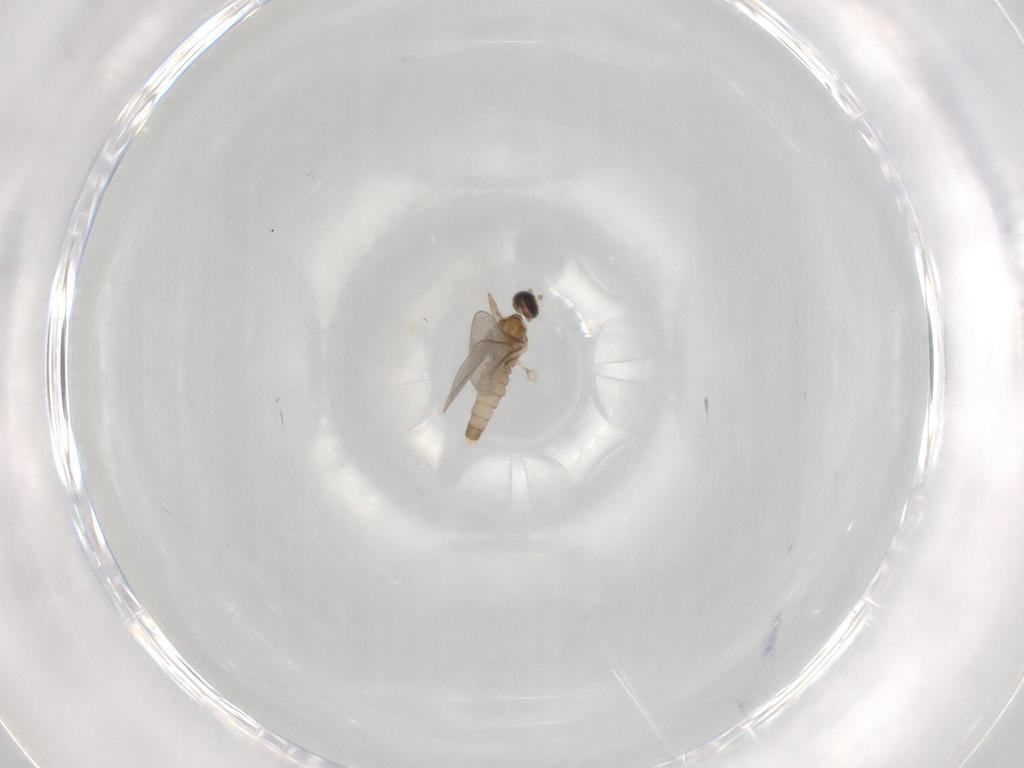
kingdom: Animalia
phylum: Arthropoda
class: Insecta
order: Diptera
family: Cecidomyiidae
